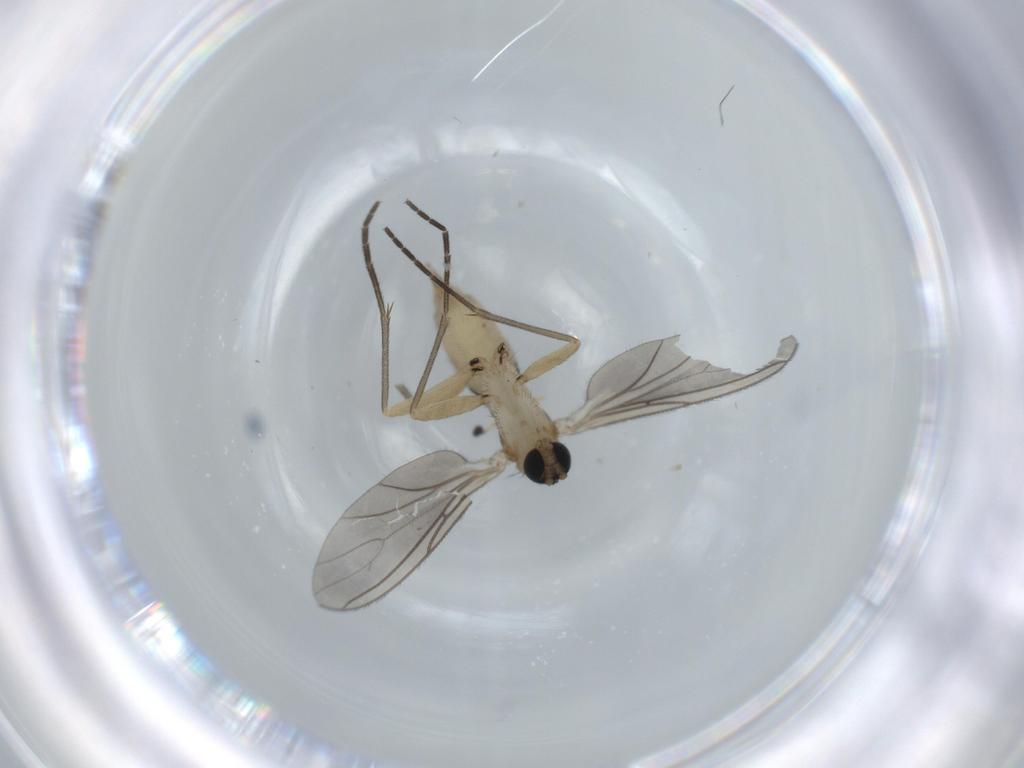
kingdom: Animalia
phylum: Arthropoda
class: Insecta
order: Diptera
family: Sciaridae
